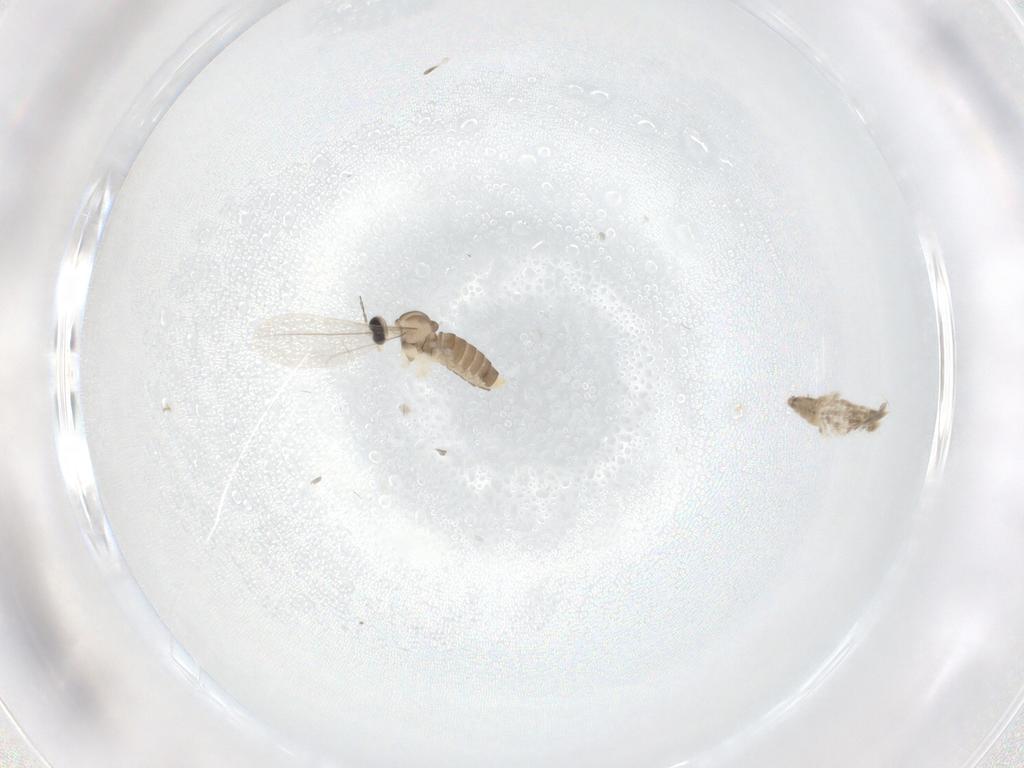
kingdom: Animalia
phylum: Arthropoda
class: Insecta
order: Diptera
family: Cecidomyiidae
